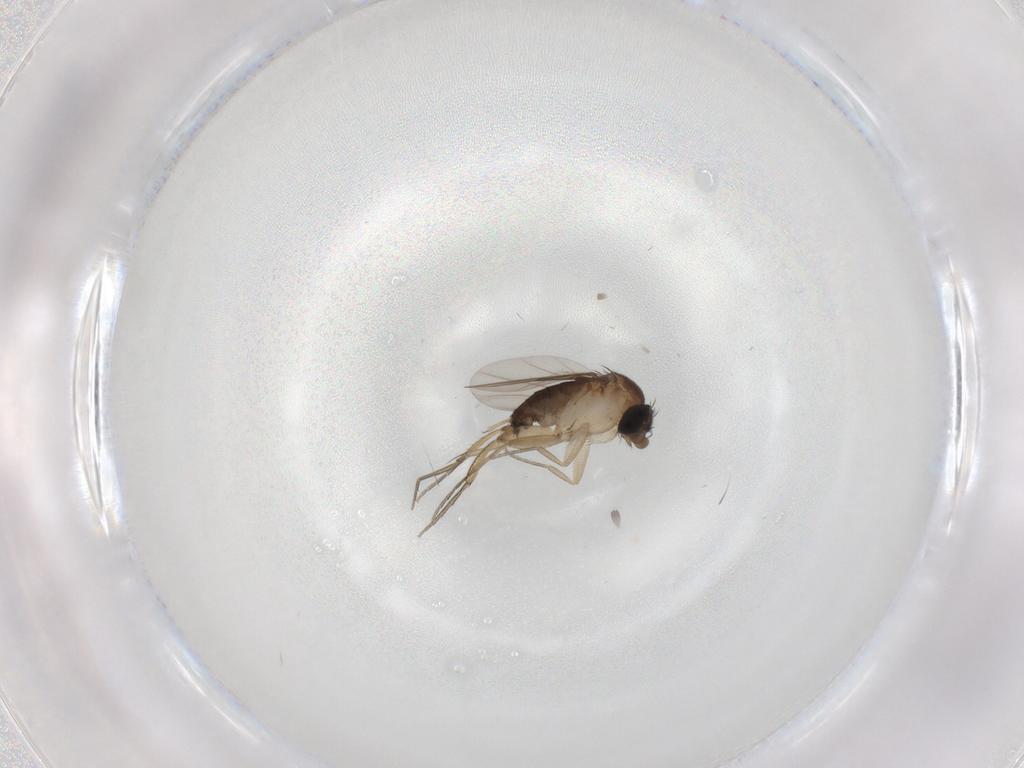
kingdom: Animalia
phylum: Arthropoda
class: Insecta
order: Diptera
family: Phoridae
